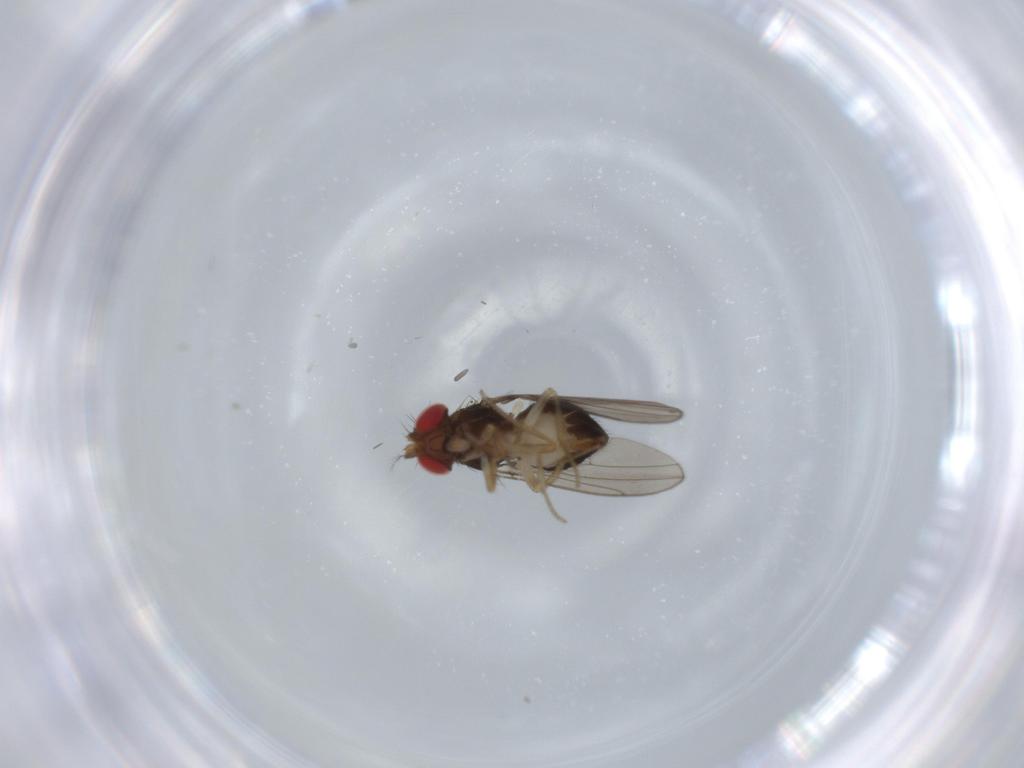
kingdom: Animalia
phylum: Arthropoda
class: Insecta
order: Diptera
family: Drosophilidae
